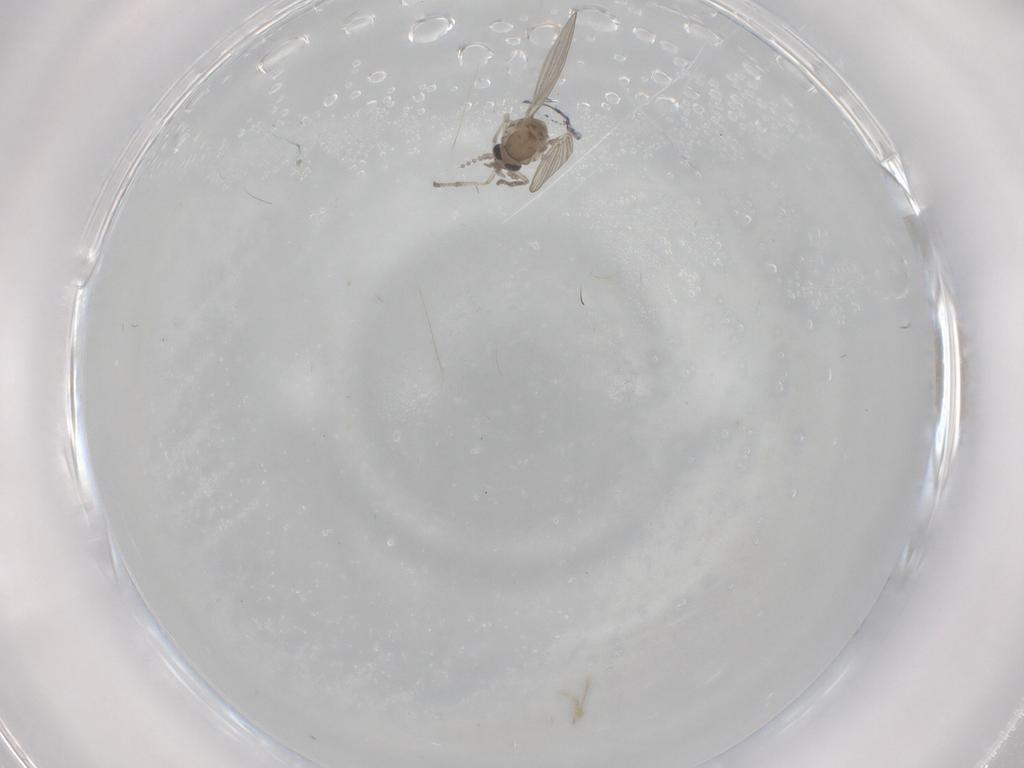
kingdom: Animalia
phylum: Arthropoda
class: Insecta
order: Diptera
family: Psychodidae
